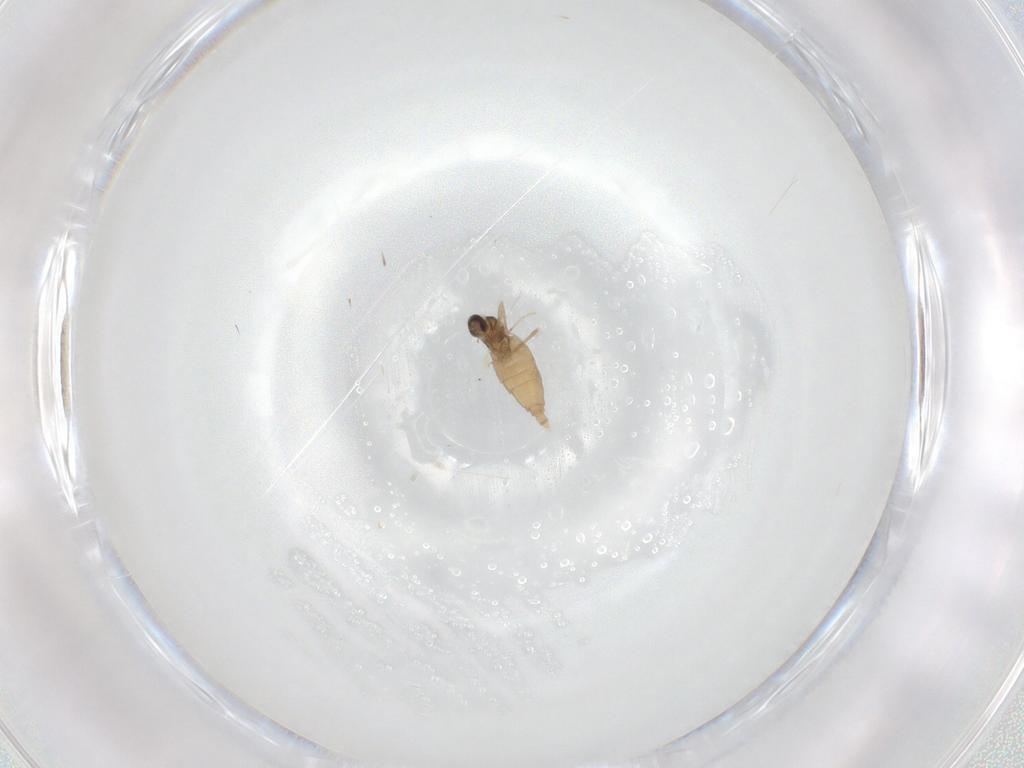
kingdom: Animalia
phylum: Arthropoda
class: Insecta
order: Diptera
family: Cecidomyiidae
